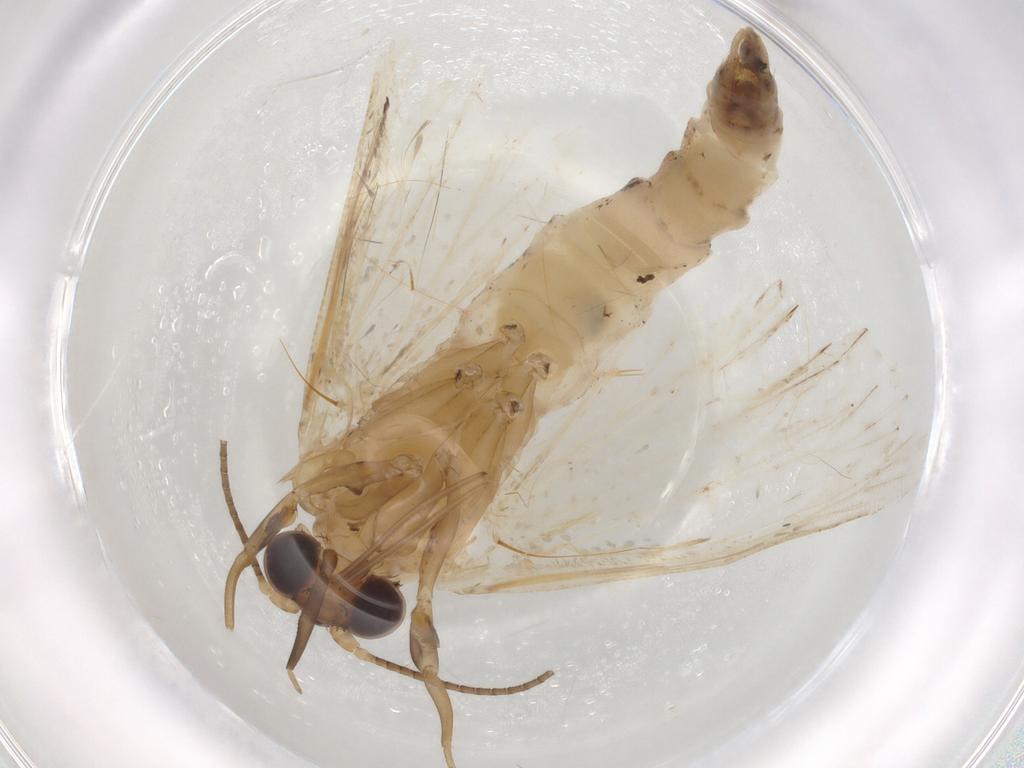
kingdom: Animalia
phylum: Arthropoda
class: Insecta
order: Lepidoptera
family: Erebidae
